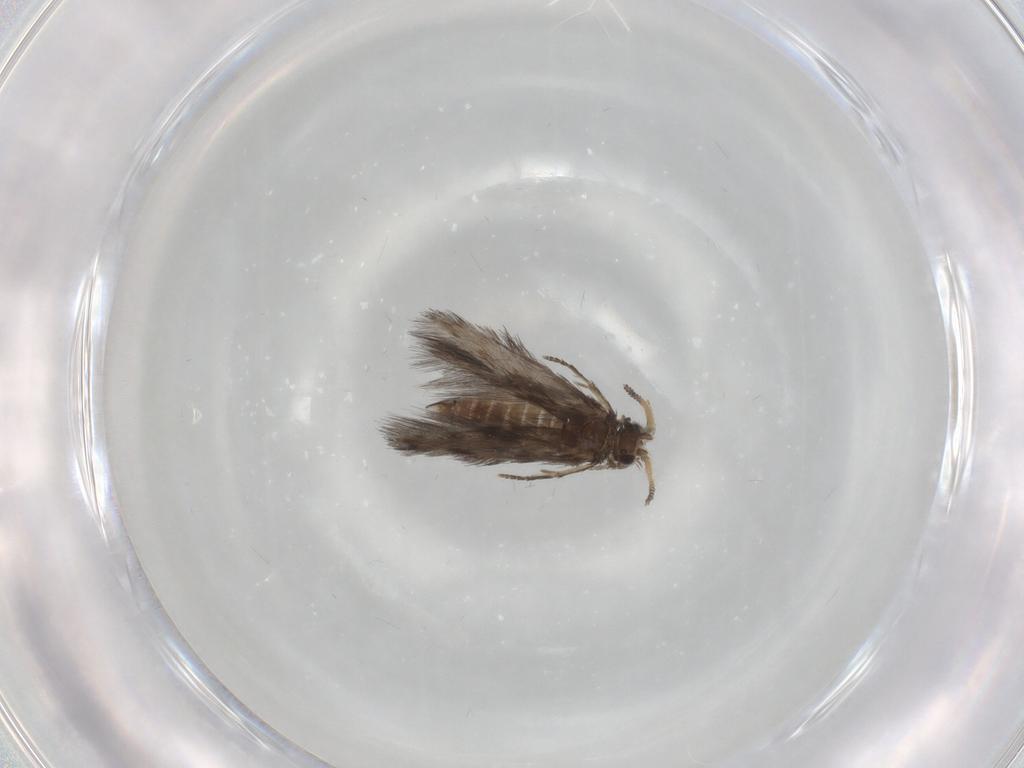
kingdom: Animalia
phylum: Arthropoda
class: Insecta
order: Trichoptera
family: Hydroptilidae
